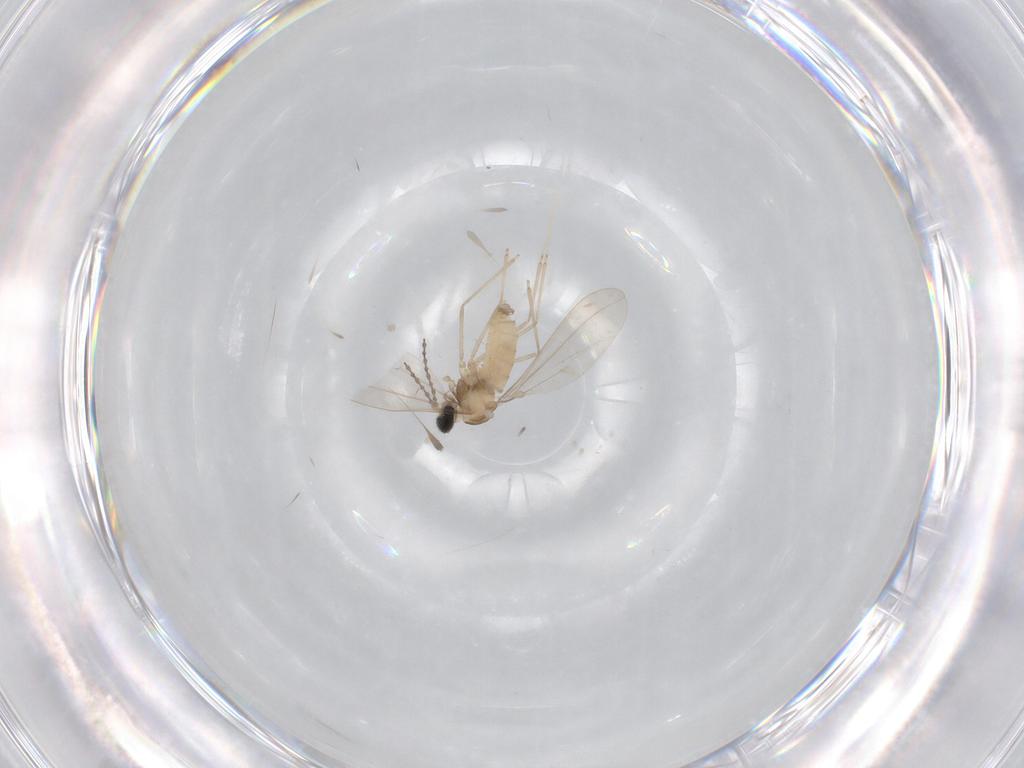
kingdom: Animalia
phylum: Arthropoda
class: Insecta
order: Diptera
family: Cecidomyiidae
